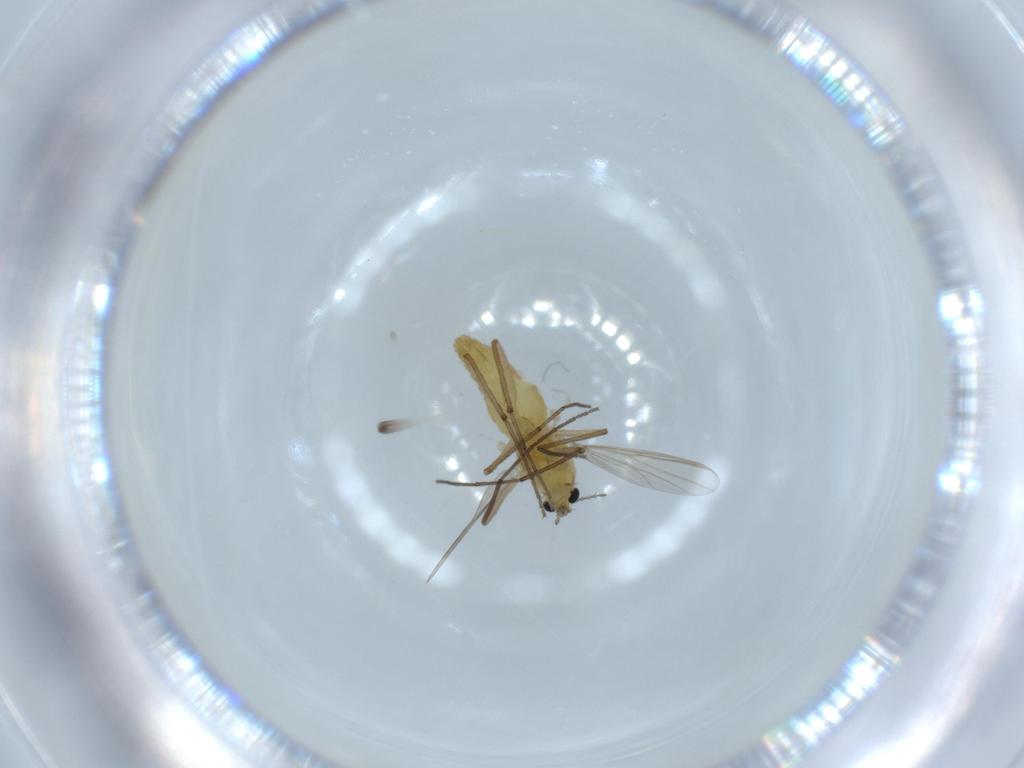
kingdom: Animalia
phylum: Arthropoda
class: Insecta
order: Diptera
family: Chironomidae
